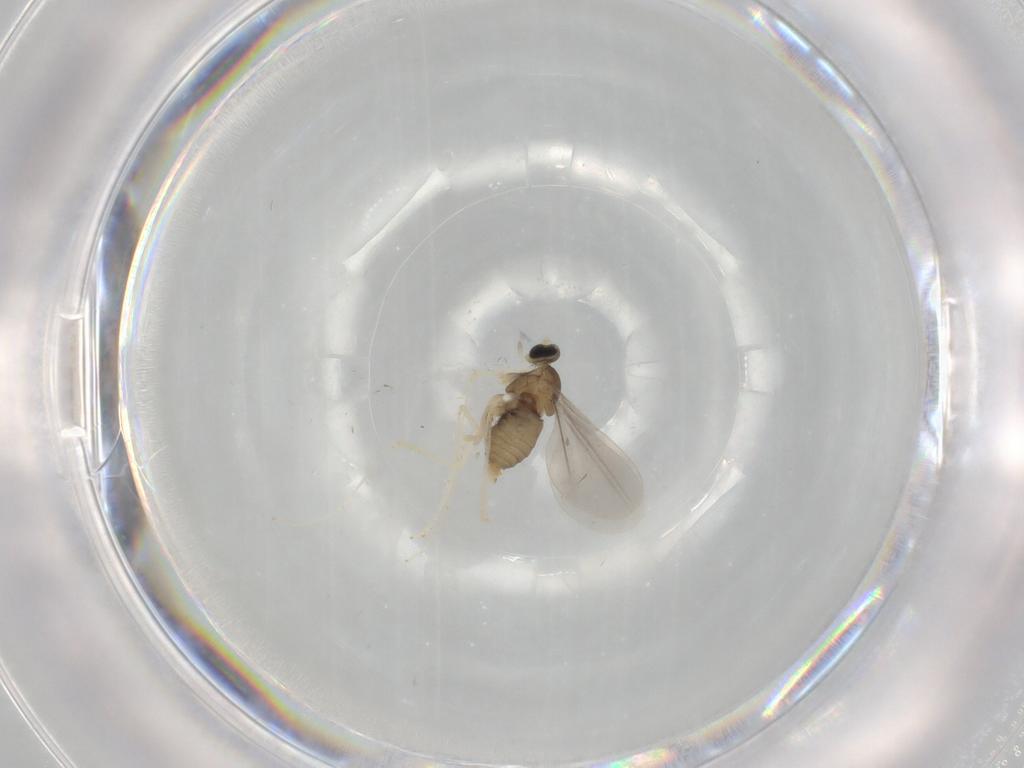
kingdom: Animalia
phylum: Arthropoda
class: Insecta
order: Diptera
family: Cecidomyiidae
